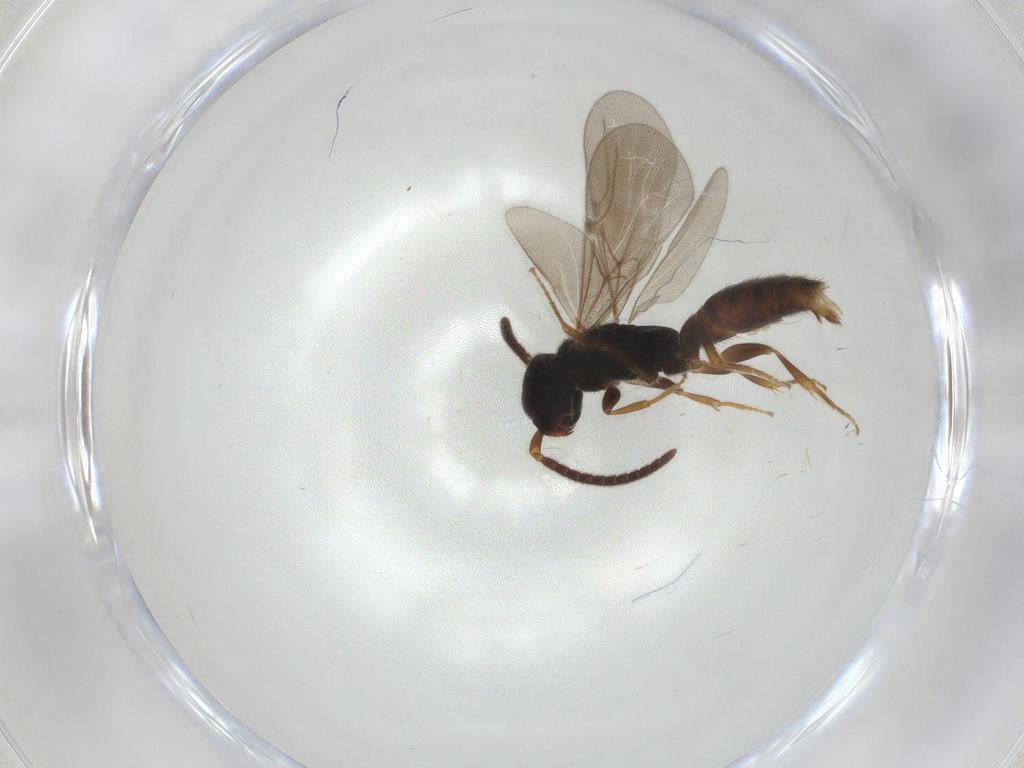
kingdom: Animalia
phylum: Arthropoda
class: Insecta
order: Hymenoptera
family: Bethylidae
